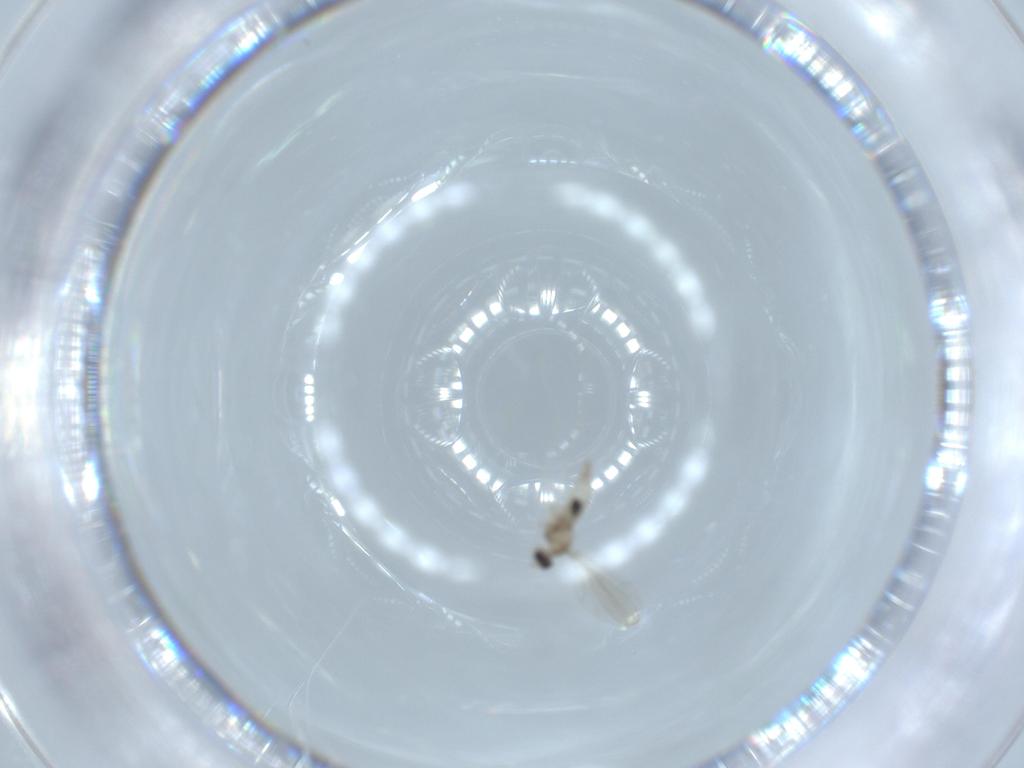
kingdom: Animalia
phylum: Arthropoda
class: Insecta
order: Diptera
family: Cecidomyiidae
